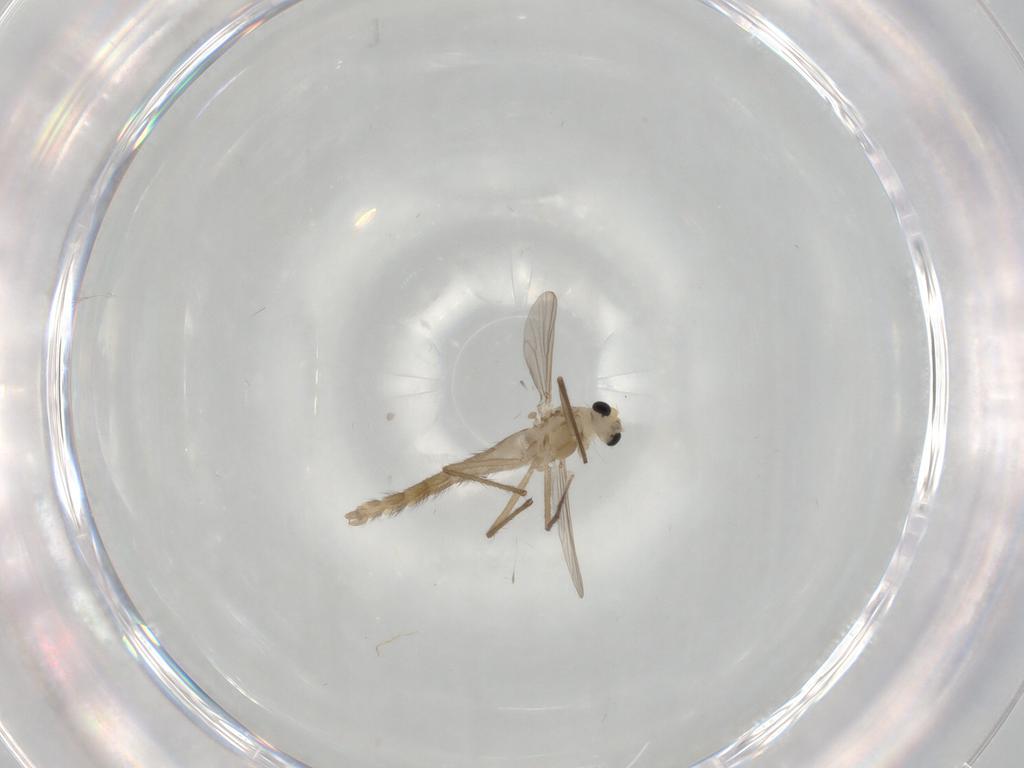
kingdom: Animalia
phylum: Arthropoda
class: Insecta
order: Diptera
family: Chironomidae
